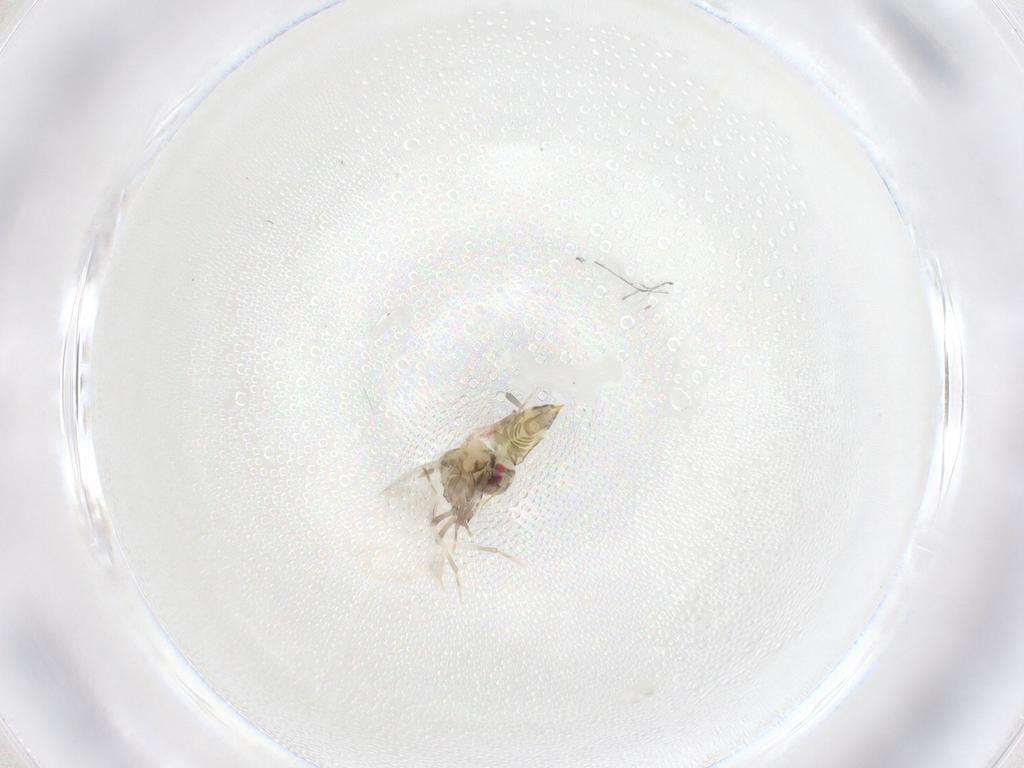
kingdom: Animalia
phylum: Arthropoda
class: Insecta
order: Hemiptera
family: Aleyrodidae
